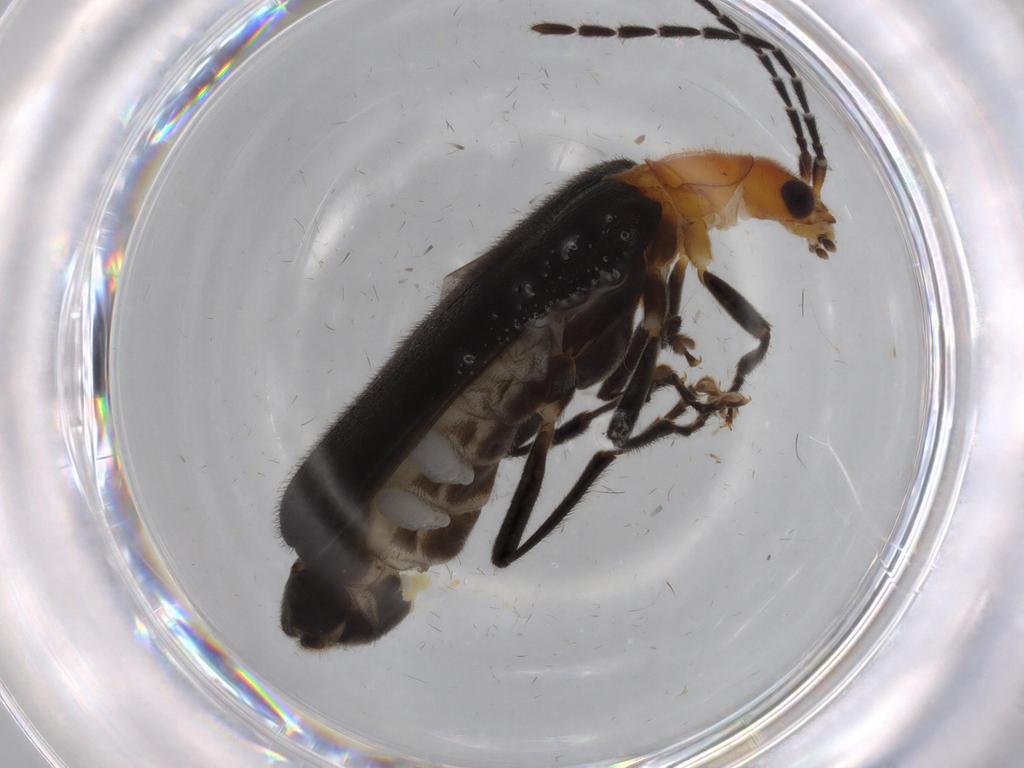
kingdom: Animalia
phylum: Arthropoda
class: Insecta
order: Coleoptera
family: Cantharidae
